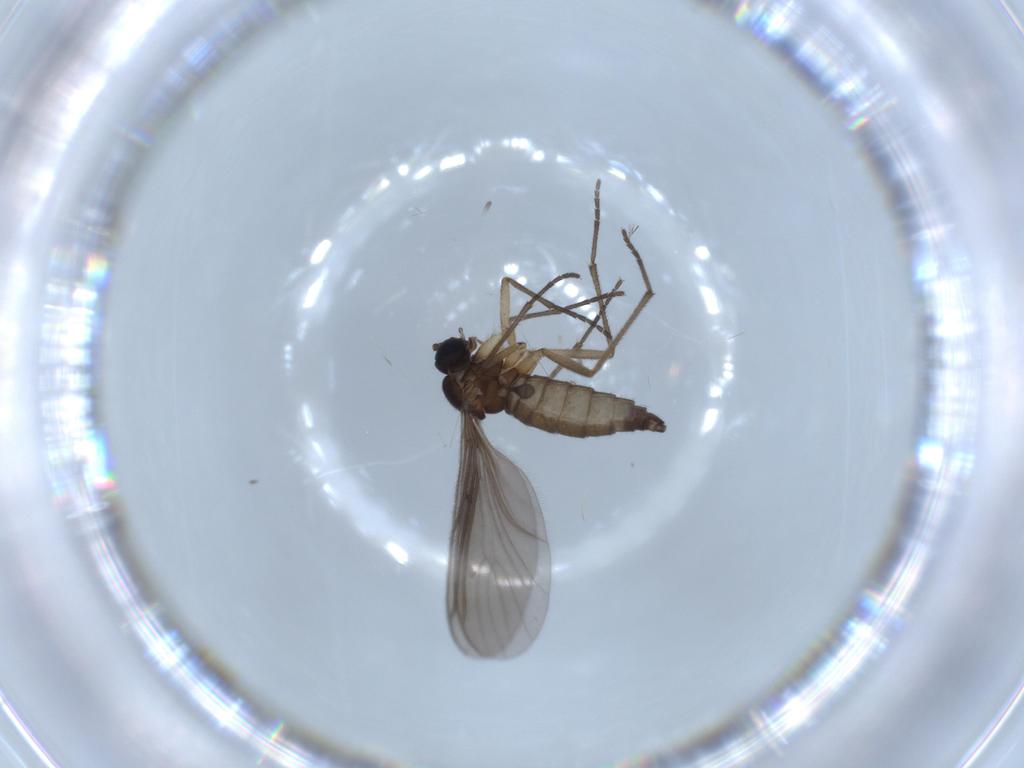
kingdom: Animalia
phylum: Arthropoda
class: Insecta
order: Diptera
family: Sciaridae
